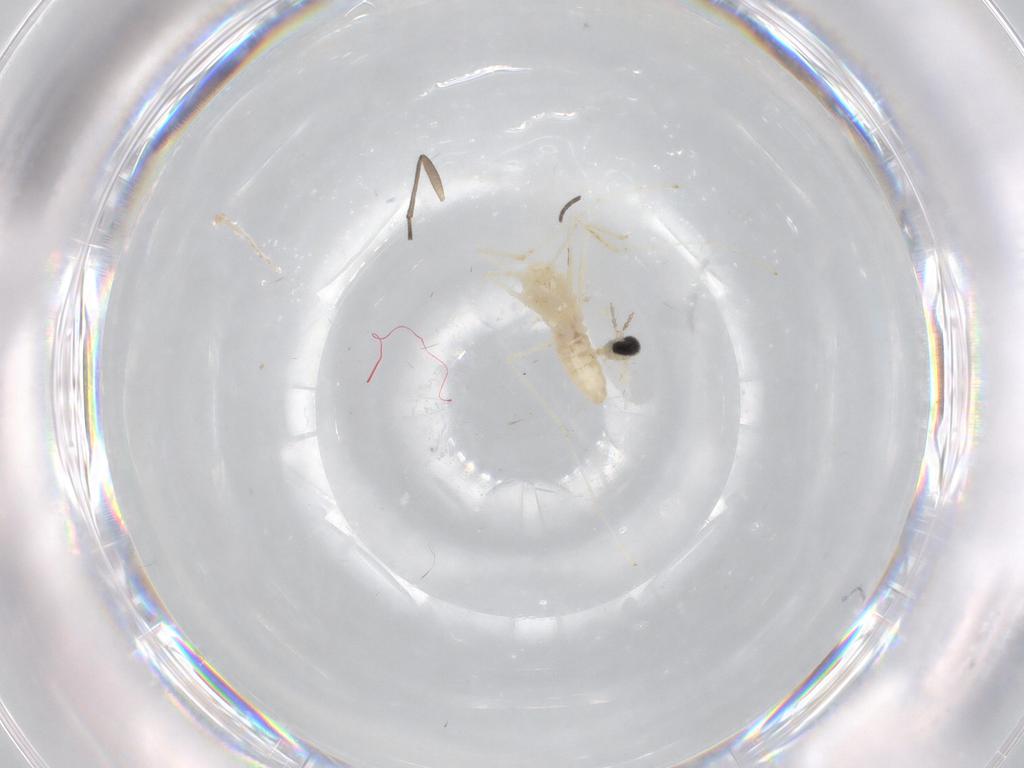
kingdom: Animalia
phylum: Arthropoda
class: Insecta
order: Diptera
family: Cecidomyiidae
